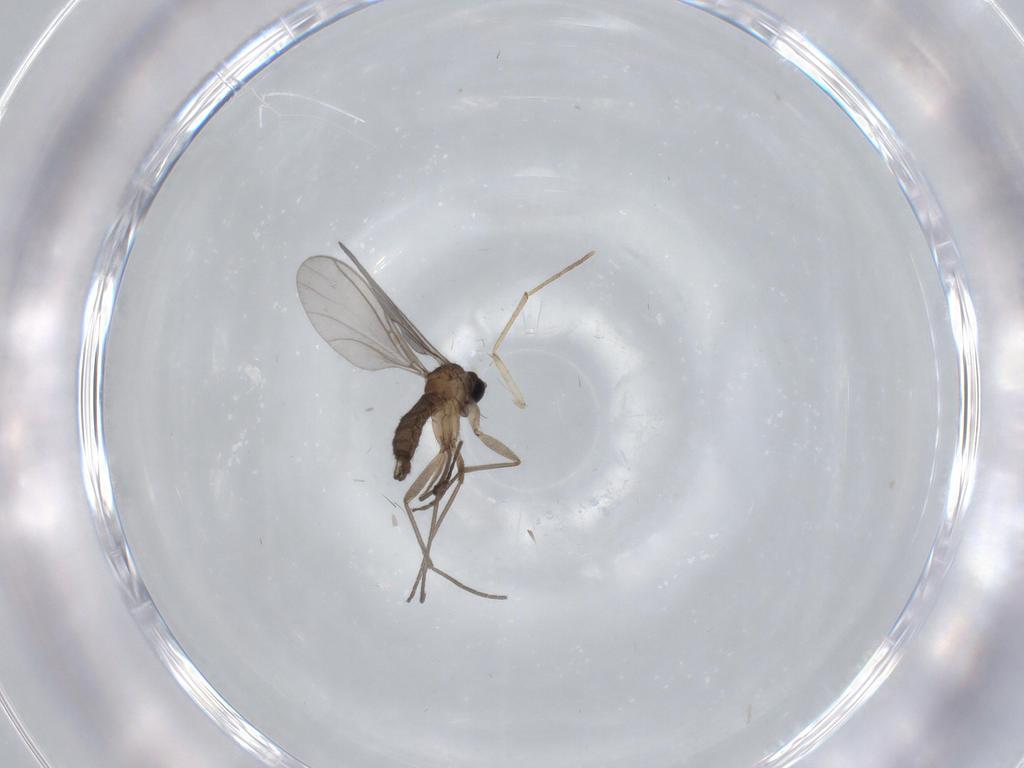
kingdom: Animalia
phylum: Arthropoda
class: Insecta
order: Diptera
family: Sciaridae
